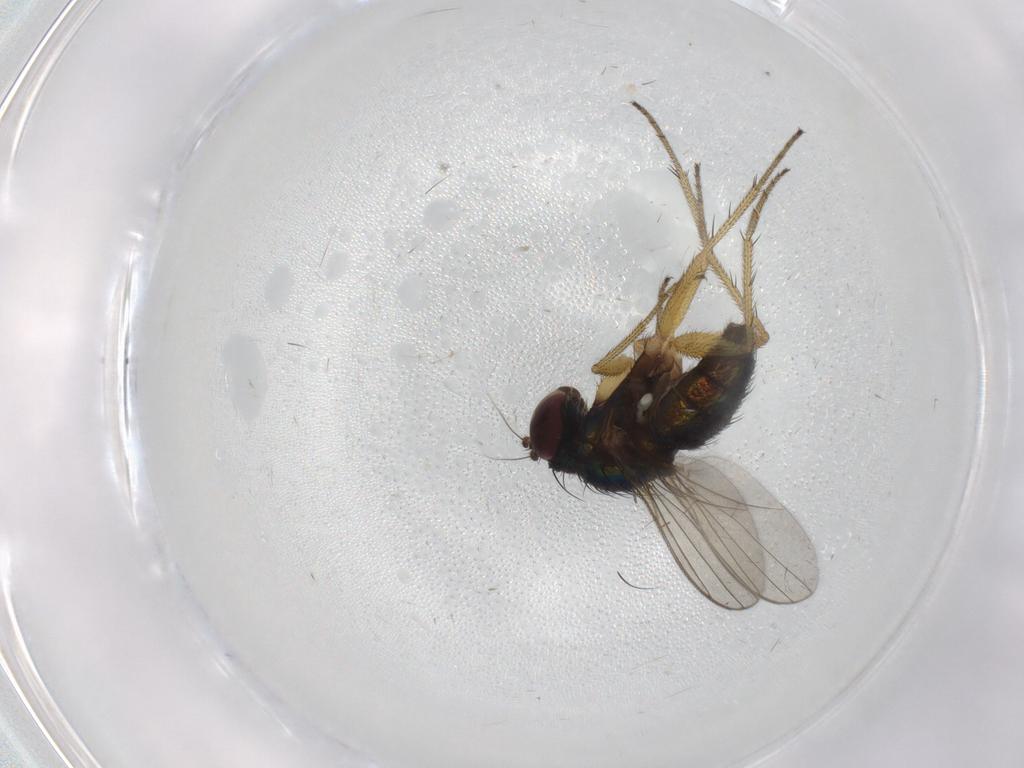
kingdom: Animalia
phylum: Arthropoda
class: Insecta
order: Diptera
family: Dolichopodidae
